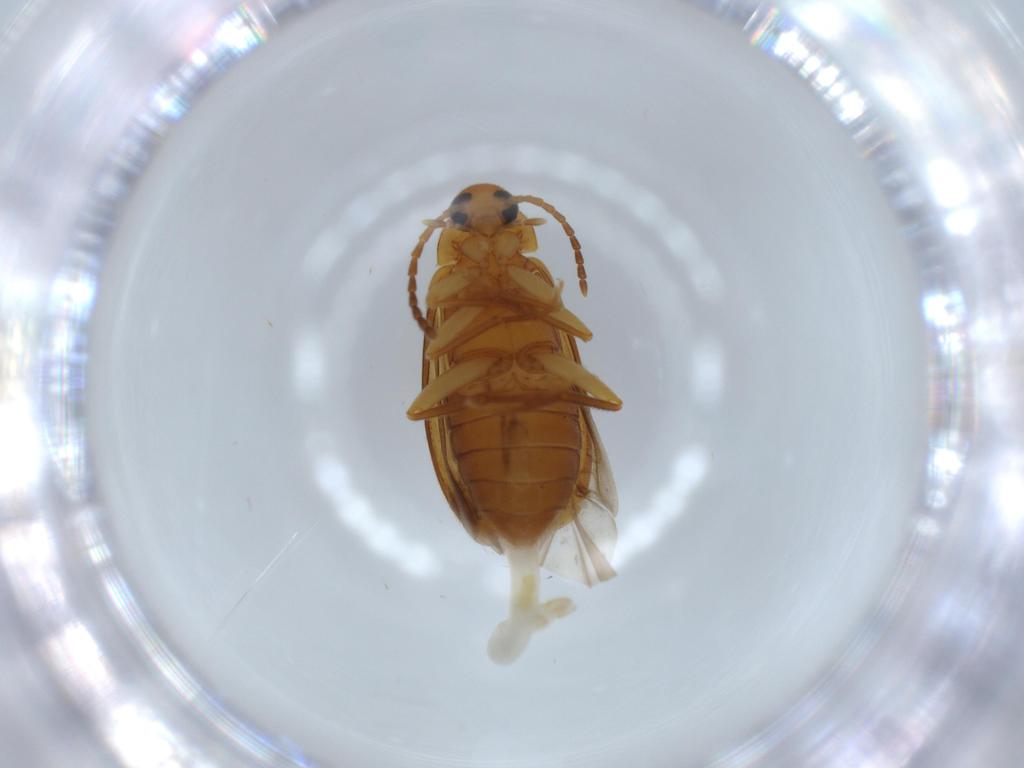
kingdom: Animalia
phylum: Arthropoda
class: Insecta
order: Coleoptera
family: Scraptiidae
